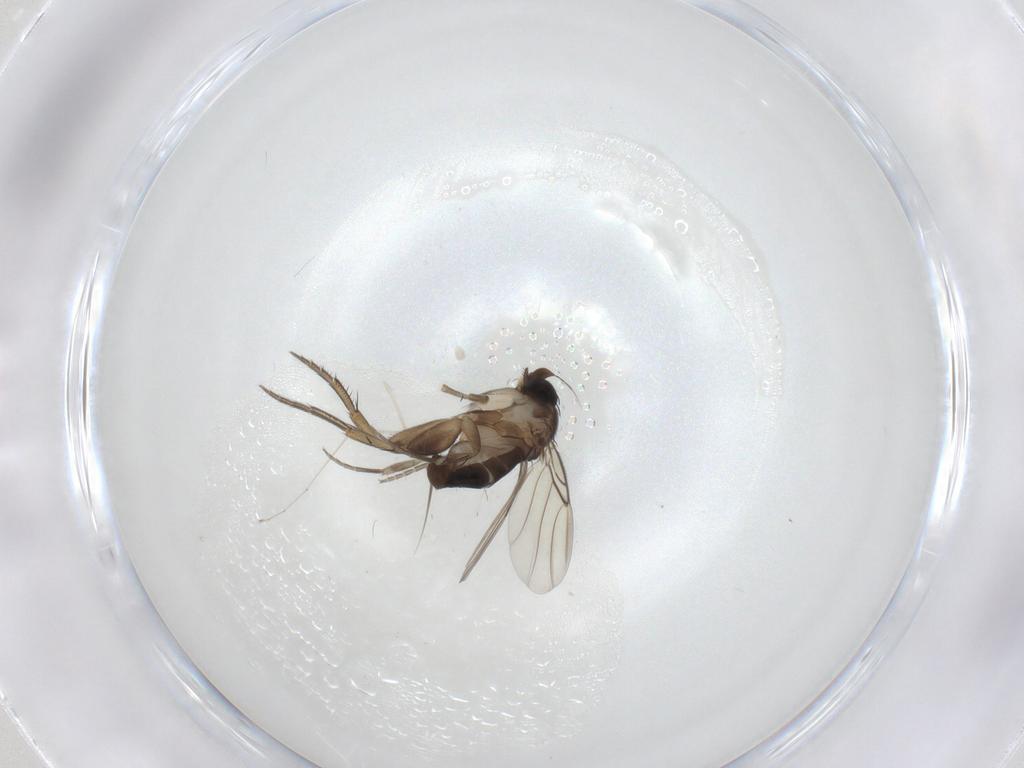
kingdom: Animalia
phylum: Arthropoda
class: Insecta
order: Diptera
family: Phoridae
